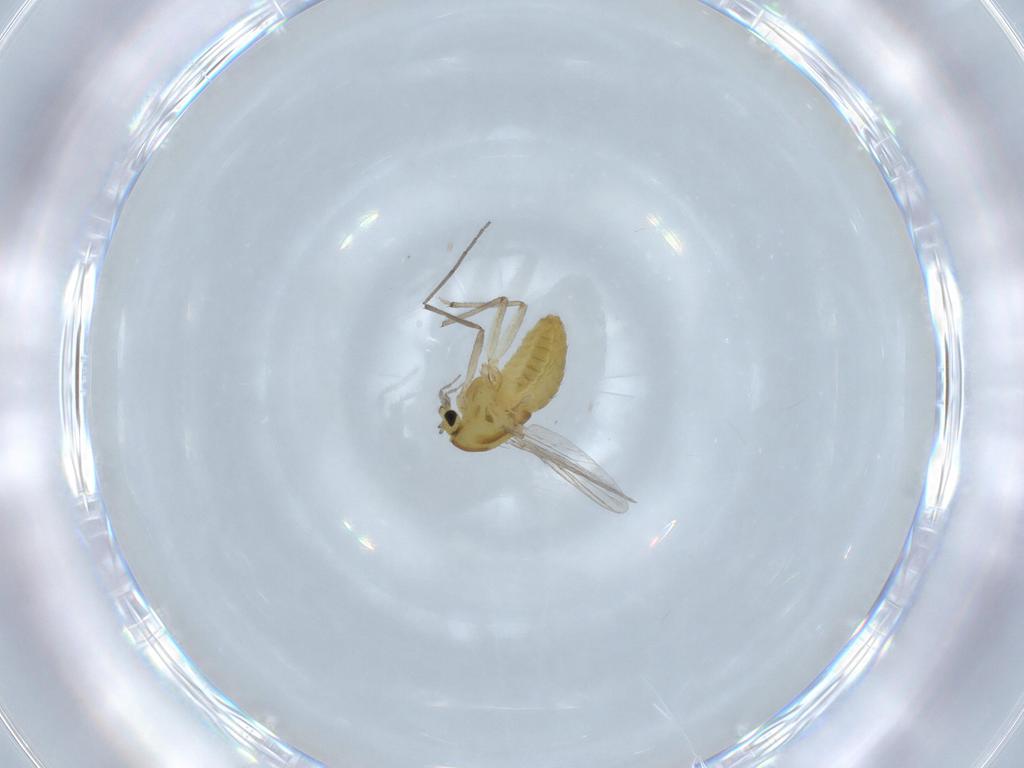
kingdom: Animalia
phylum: Arthropoda
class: Insecta
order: Diptera
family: Chironomidae
